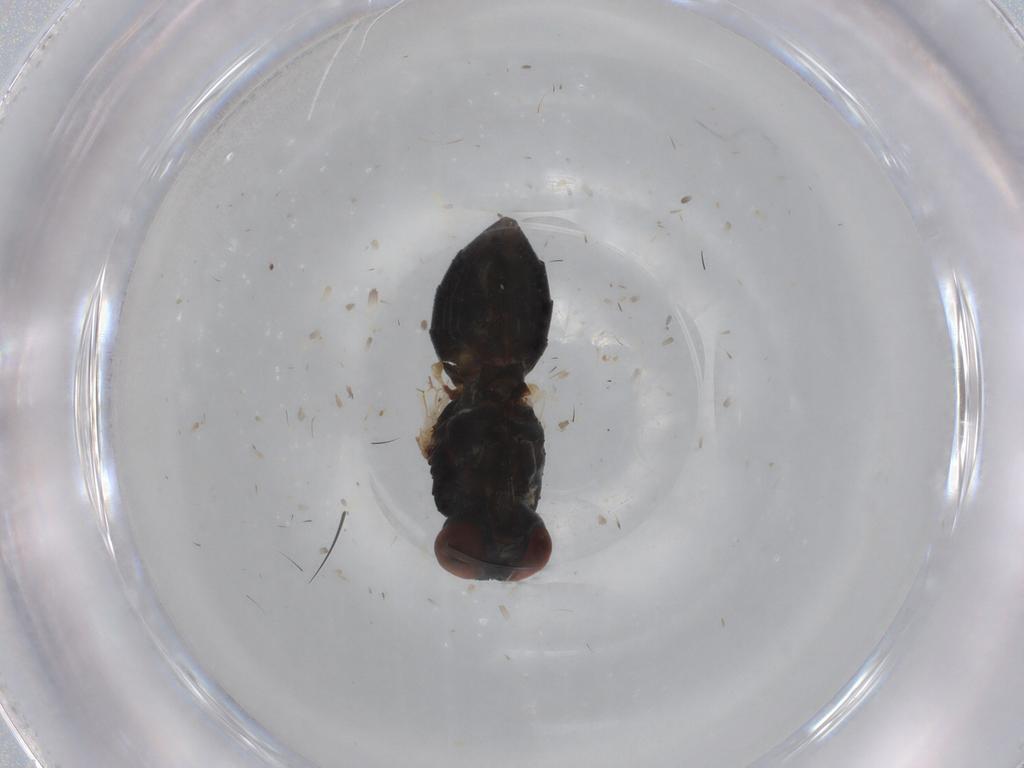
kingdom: Animalia
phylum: Arthropoda
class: Insecta
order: Diptera
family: Muscidae
